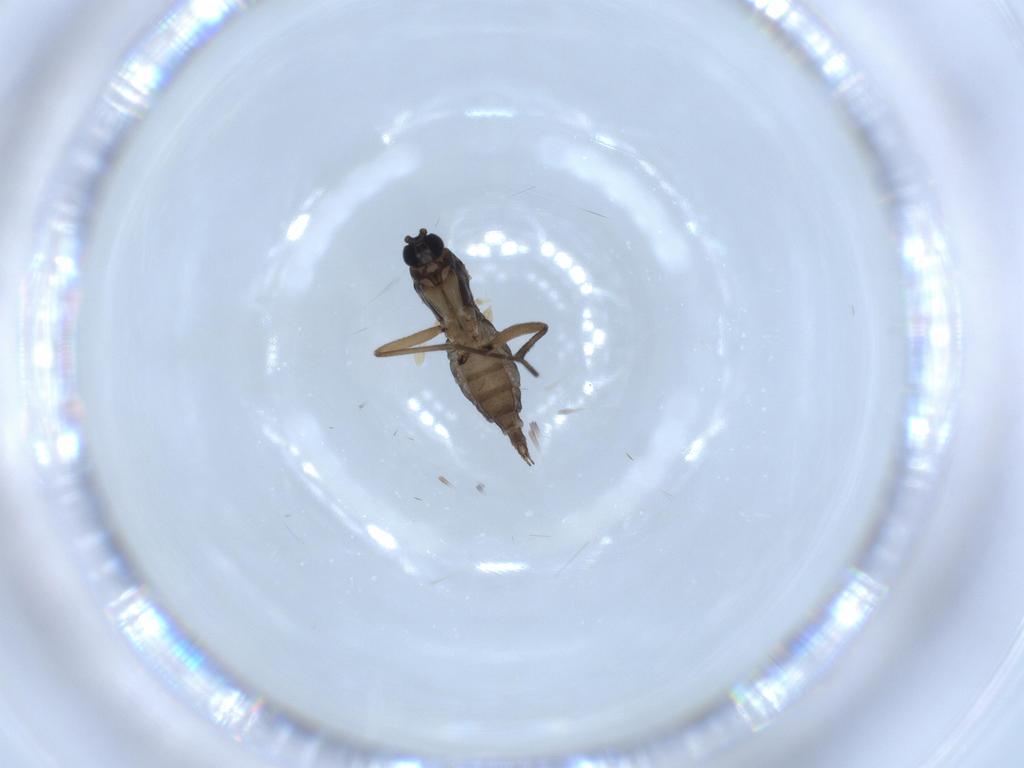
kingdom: Animalia
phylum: Arthropoda
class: Insecta
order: Diptera
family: Sciaridae
